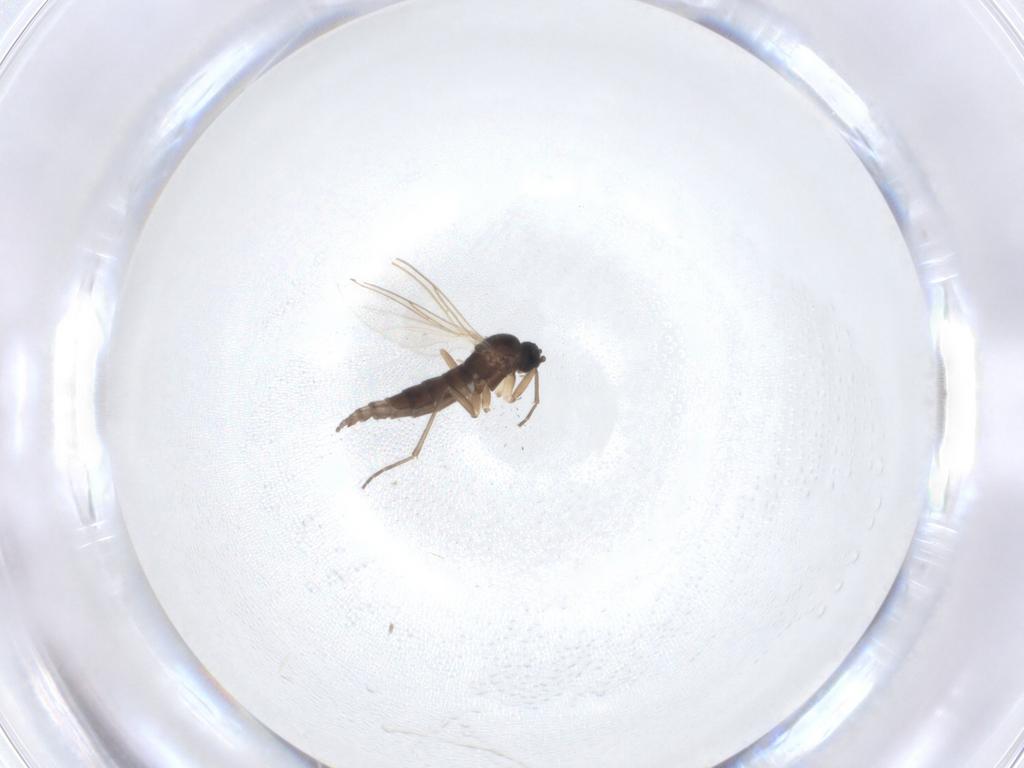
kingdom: Animalia
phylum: Arthropoda
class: Insecta
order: Diptera
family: Sciaridae
